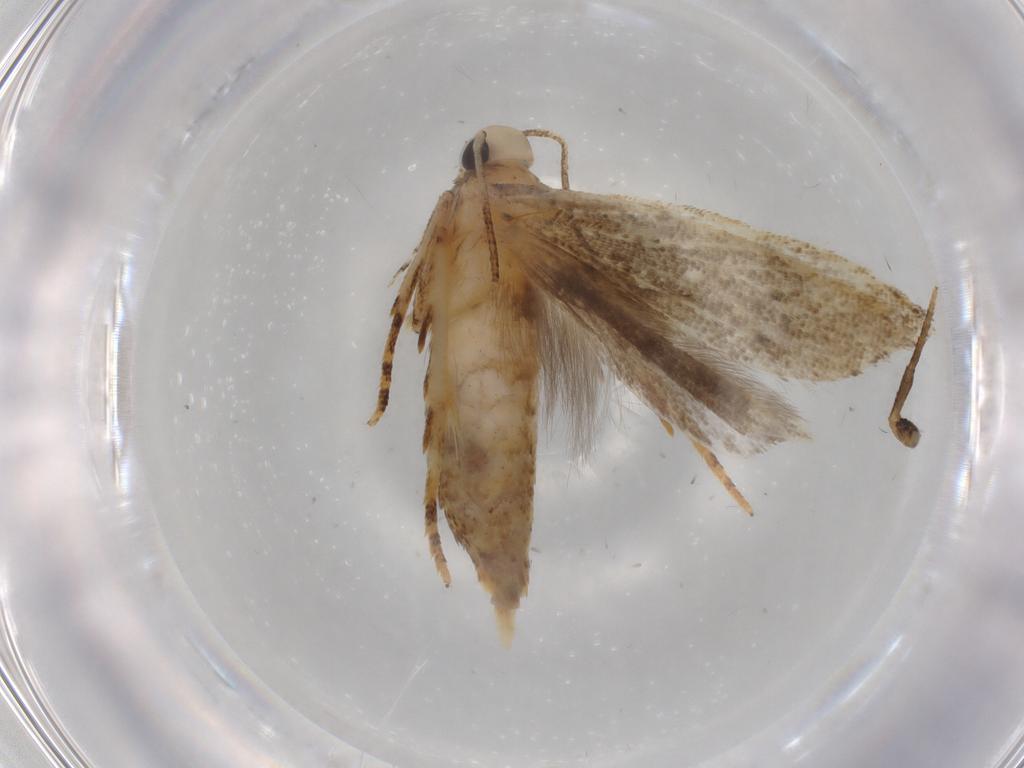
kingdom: Animalia
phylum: Arthropoda
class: Insecta
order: Lepidoptera
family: Gelechiidae
